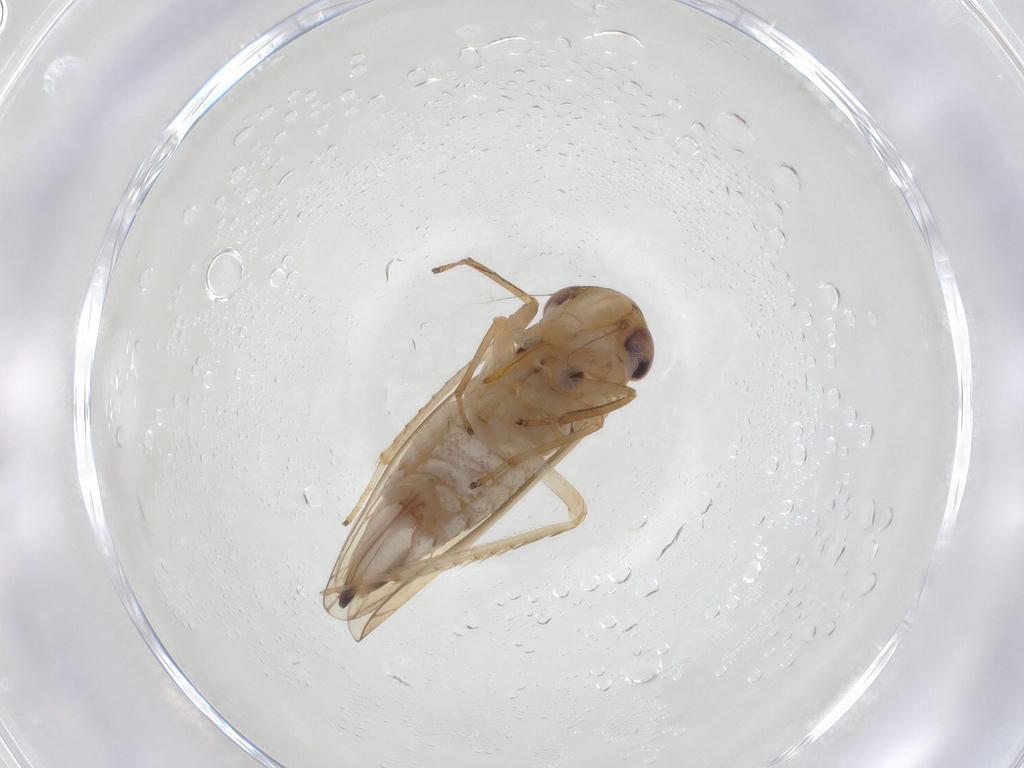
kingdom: Animalia
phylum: Arthropoda
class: Insecta
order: Hemiptera
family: Cicadellidae
